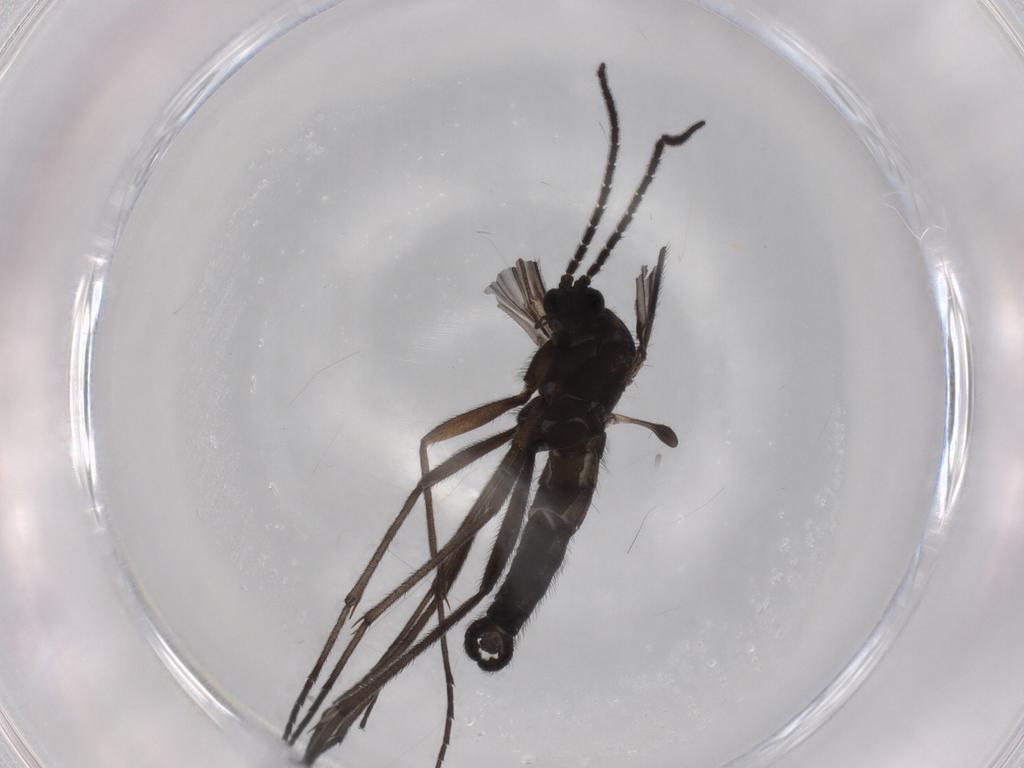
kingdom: Animalia
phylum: Arthropoda
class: Insecta
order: Diptera
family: Sciaridae
